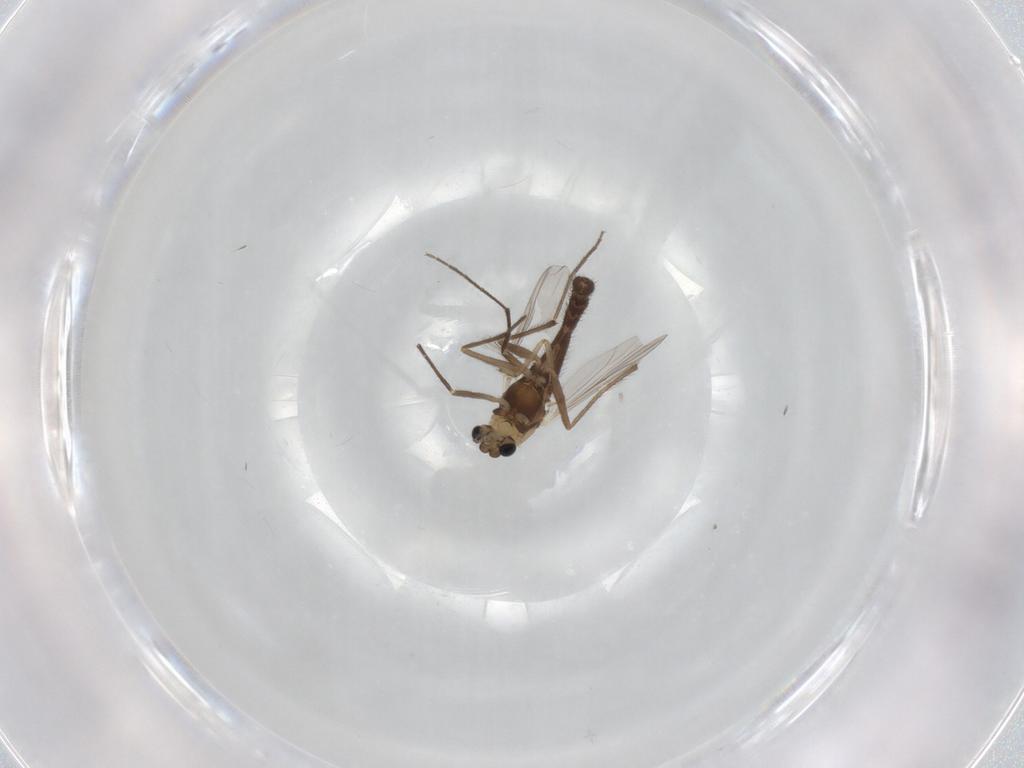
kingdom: Animalia
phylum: Arthropoda
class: Insecta
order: Diptera
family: Chironomidae
